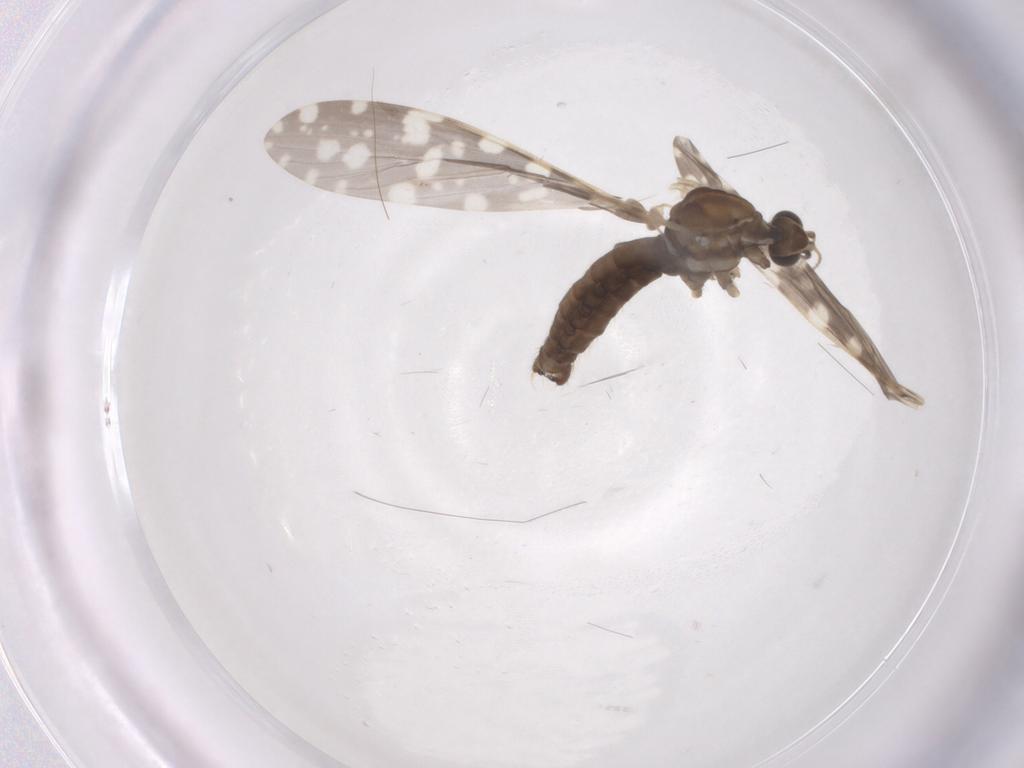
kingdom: Animalia
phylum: Arthropoda
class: Insecta
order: Diptera
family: Limoniidae
